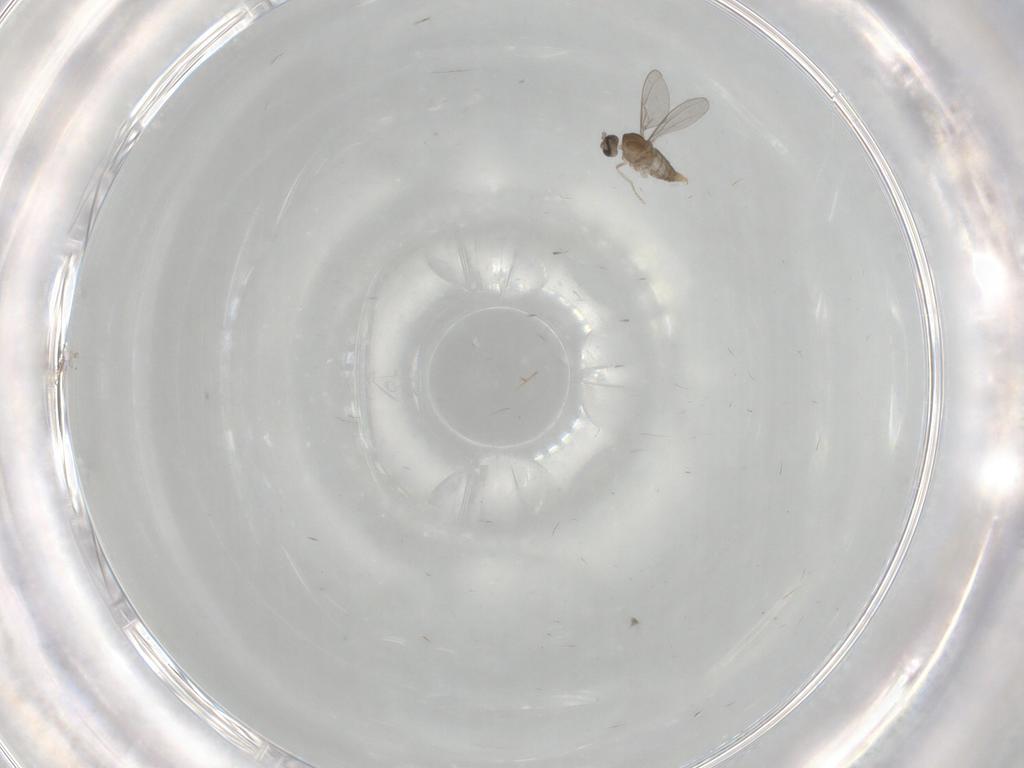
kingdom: Animalia
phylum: Arthropoda
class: Insecta
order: Diptera
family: Cecidomyiidae
